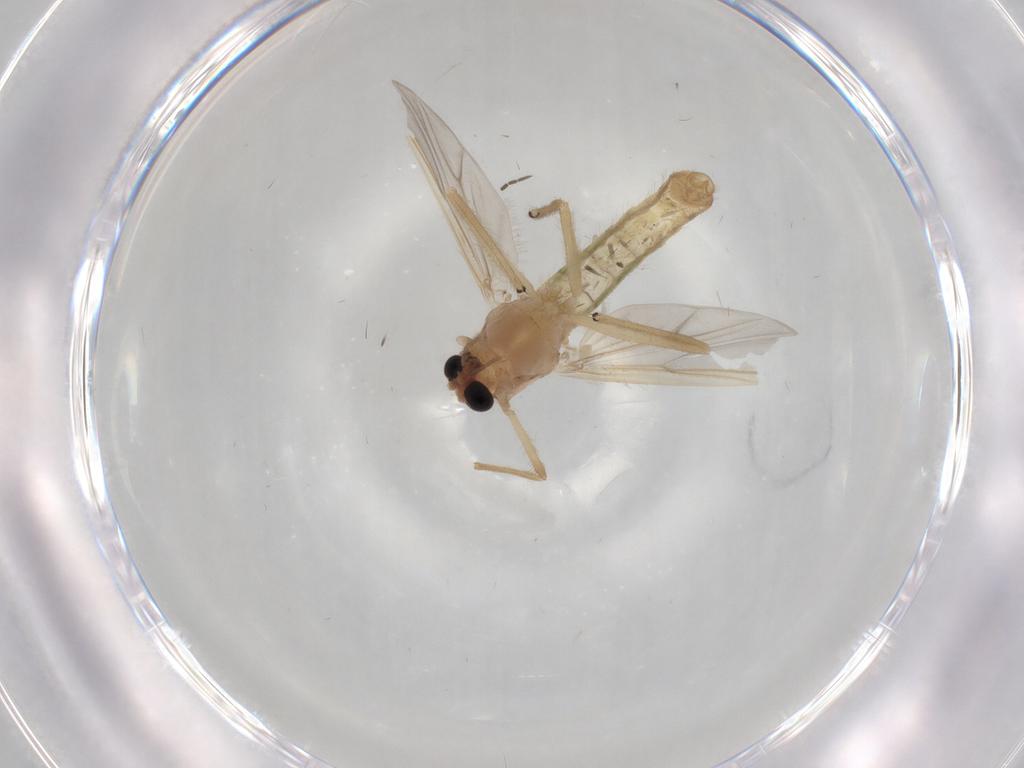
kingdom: Animalia
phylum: Arthropoda
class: Insecta
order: Diptera
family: Chironomidae
